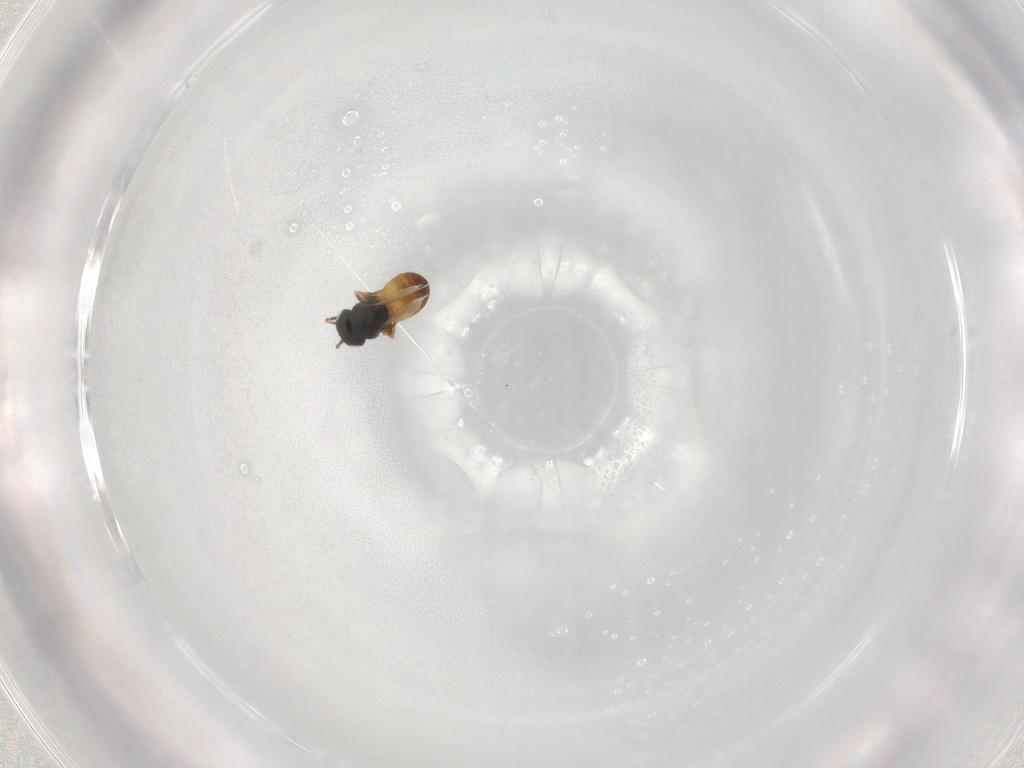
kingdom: Animalia
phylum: Arthropoda
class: Insecta
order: Hymenoptera
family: Scelionidae
